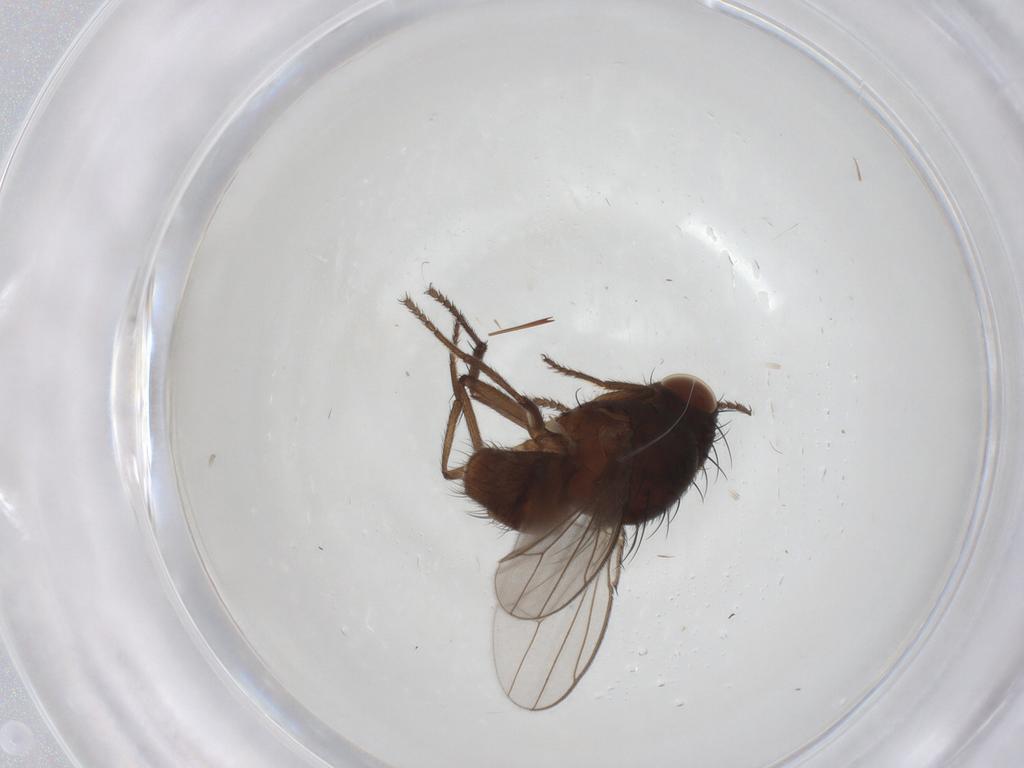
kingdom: Animalia
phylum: Arthropoda
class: Insecta
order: Diptera
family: Ephydridae
